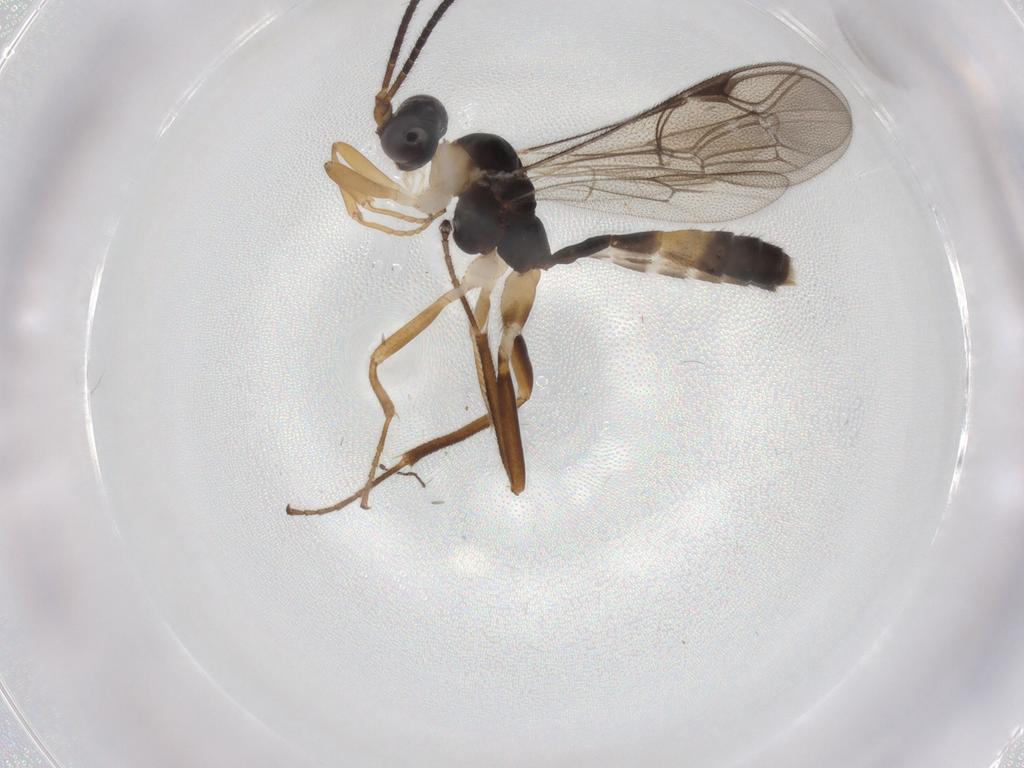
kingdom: Animalia
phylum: Arthropoda
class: Insecta
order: Hymenoptera
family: Ichneumonidae
